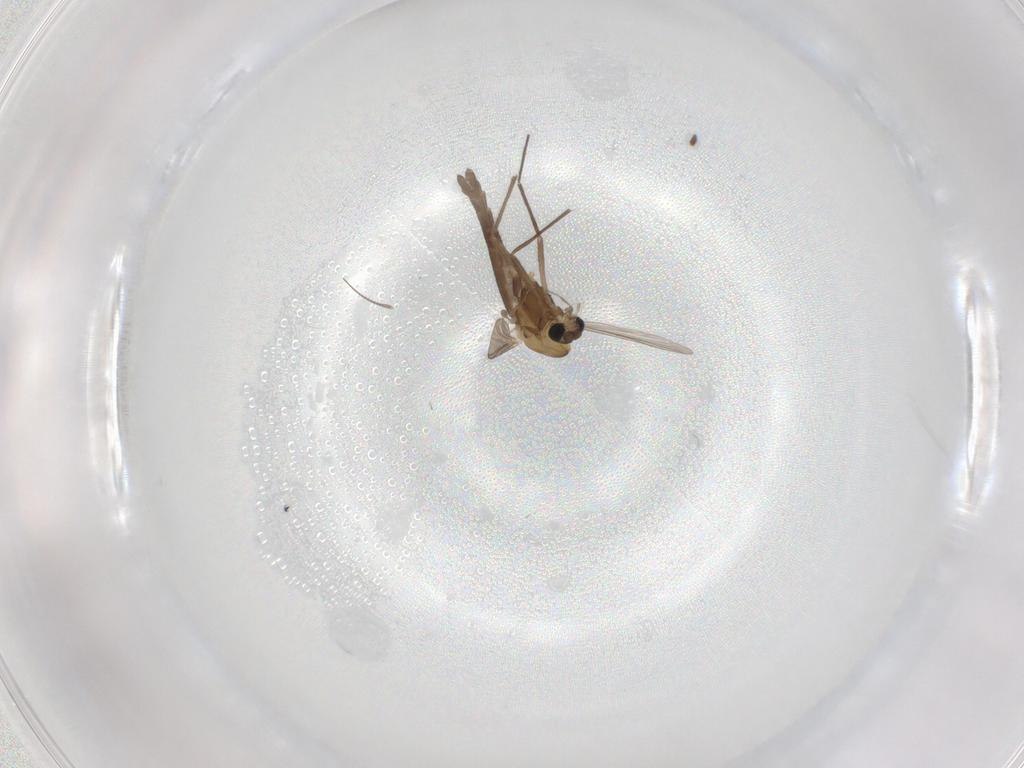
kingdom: Animalia
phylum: Arthropoda
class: Insecta
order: Diptera
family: Chironomidae
